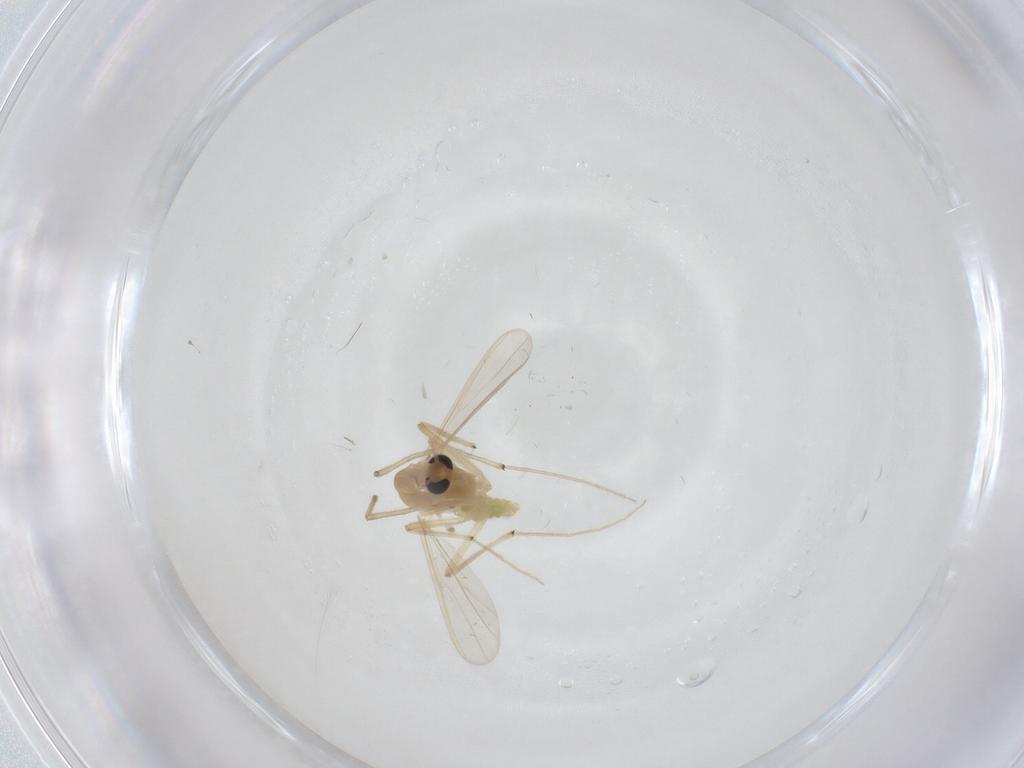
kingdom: Animalia
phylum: Arthropoda
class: Insecta
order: Diptera
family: Chironomidae
